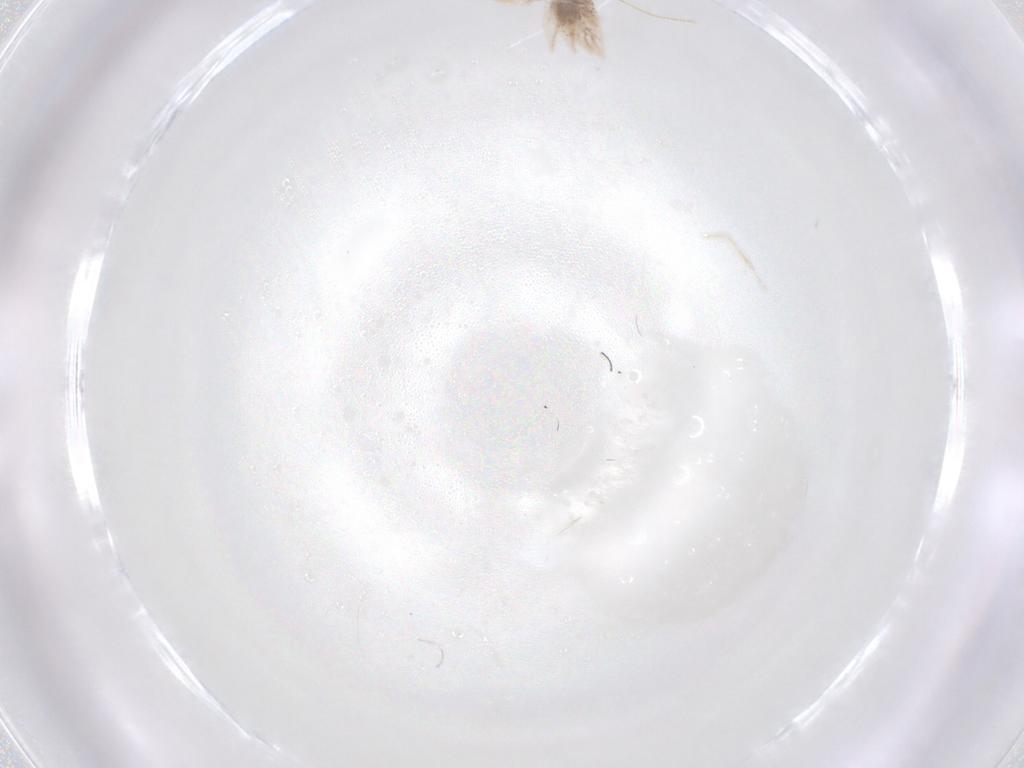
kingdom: Animalia
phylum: Arthropoda
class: Insecta
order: Lepidoptera
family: Nepticulidae
